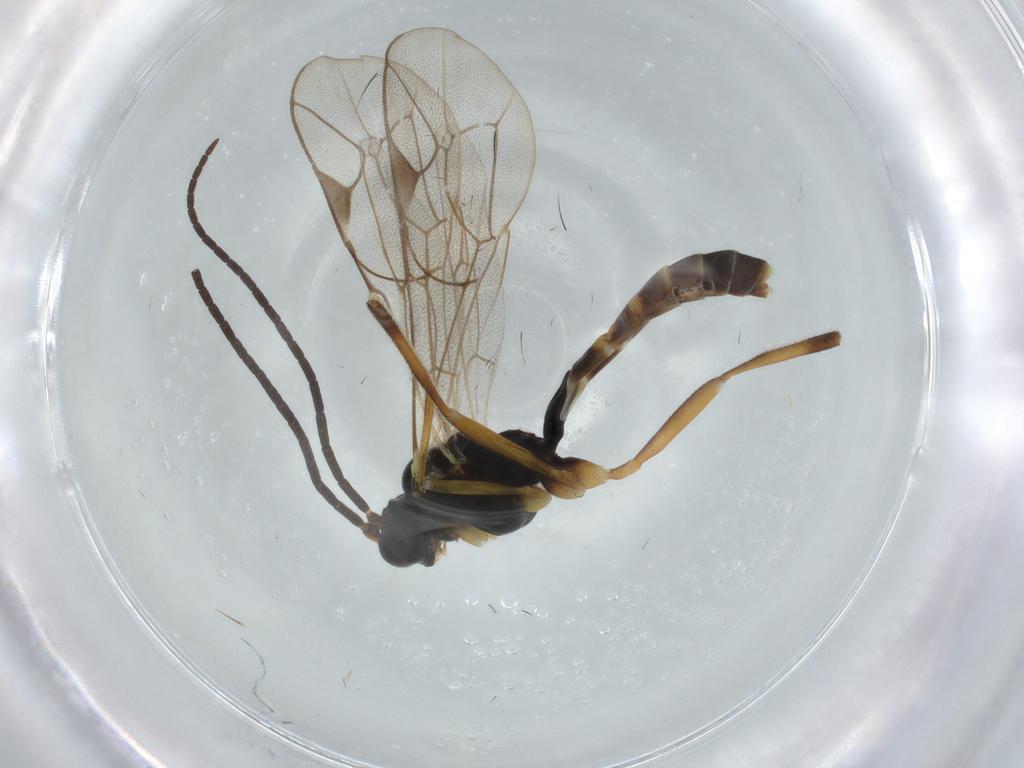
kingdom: Animalia
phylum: Arthropoda
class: Insecta
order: Hymenoptera
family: Ichneumonidae
